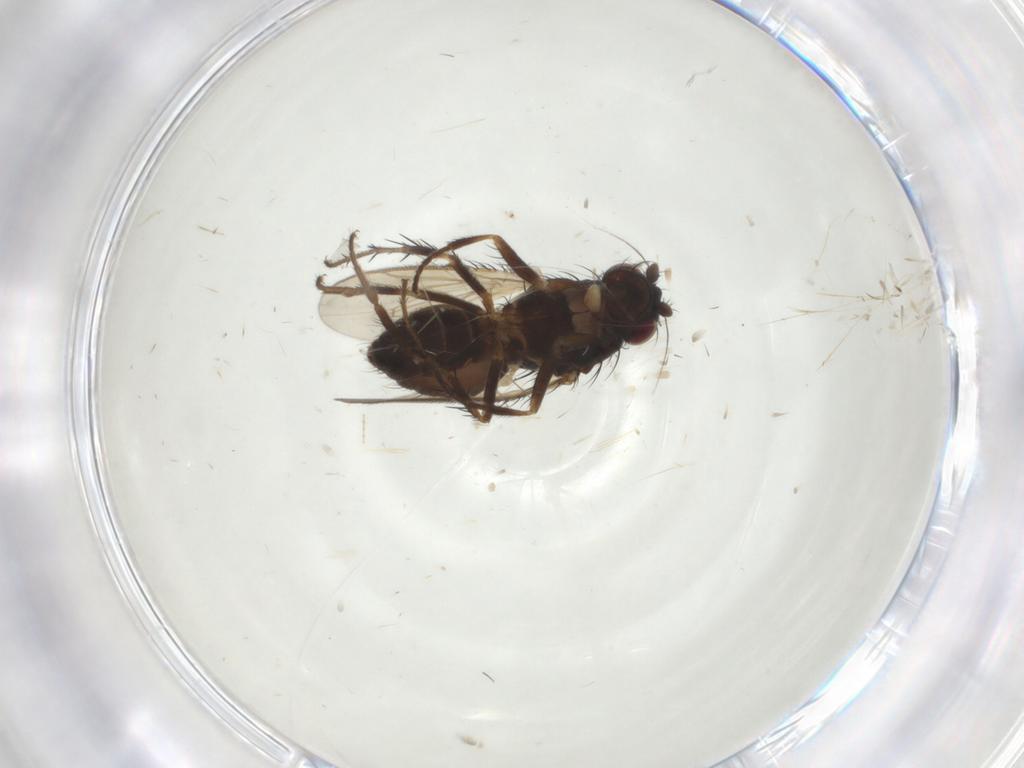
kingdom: Animalia
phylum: Arthropoda
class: Insecta
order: Diptera
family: Sphaeroceridae
